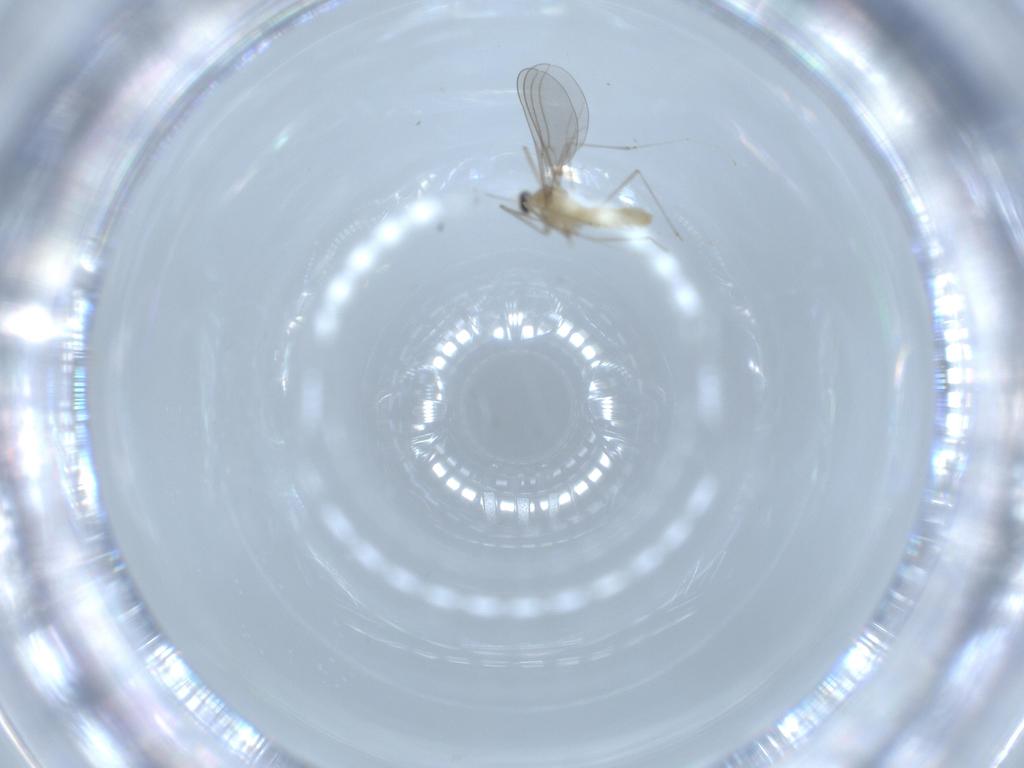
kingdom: Animalia
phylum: Arthropoda
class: Insecta
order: Diptera
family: Cecidomyiidae
